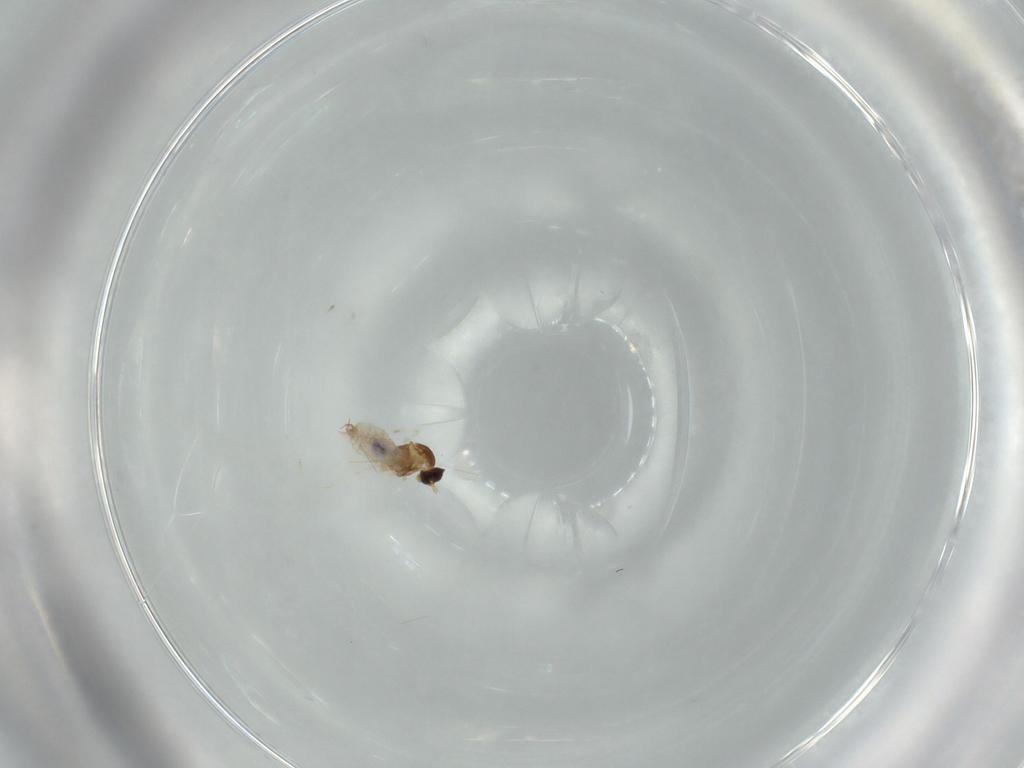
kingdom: Animalia
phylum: Arthropoda
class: Insecta
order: Diptera
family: Cecidomyiidae
